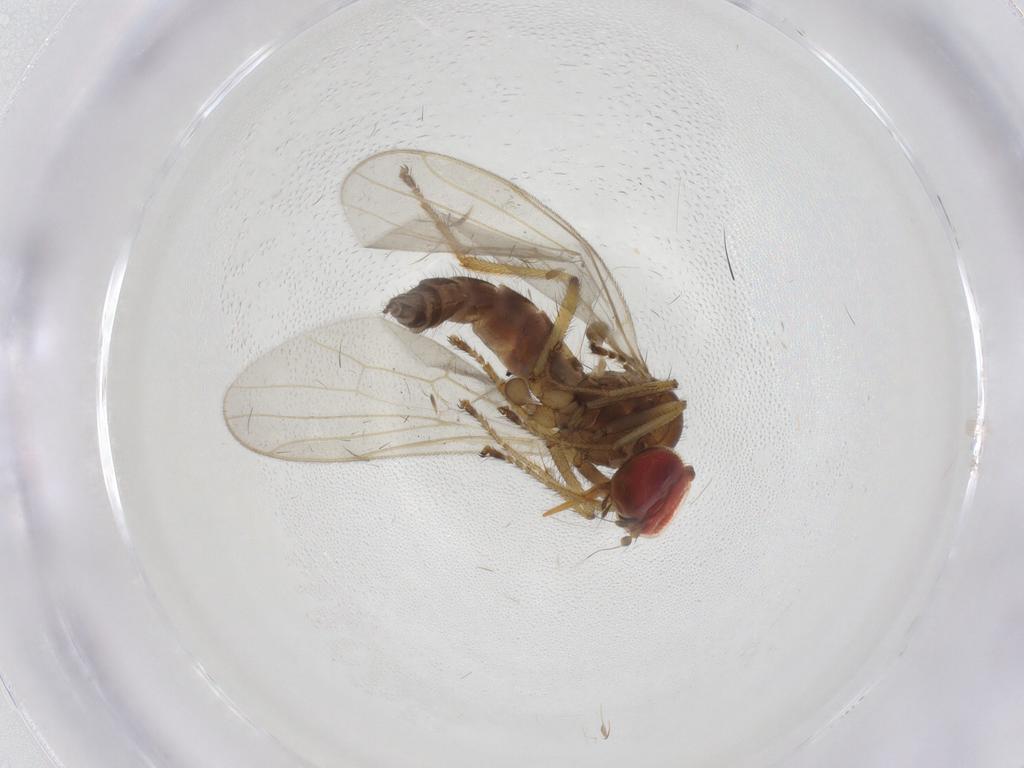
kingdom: Animalia
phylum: Arthropoda
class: Insecta
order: Diptera
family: Hybotidae
